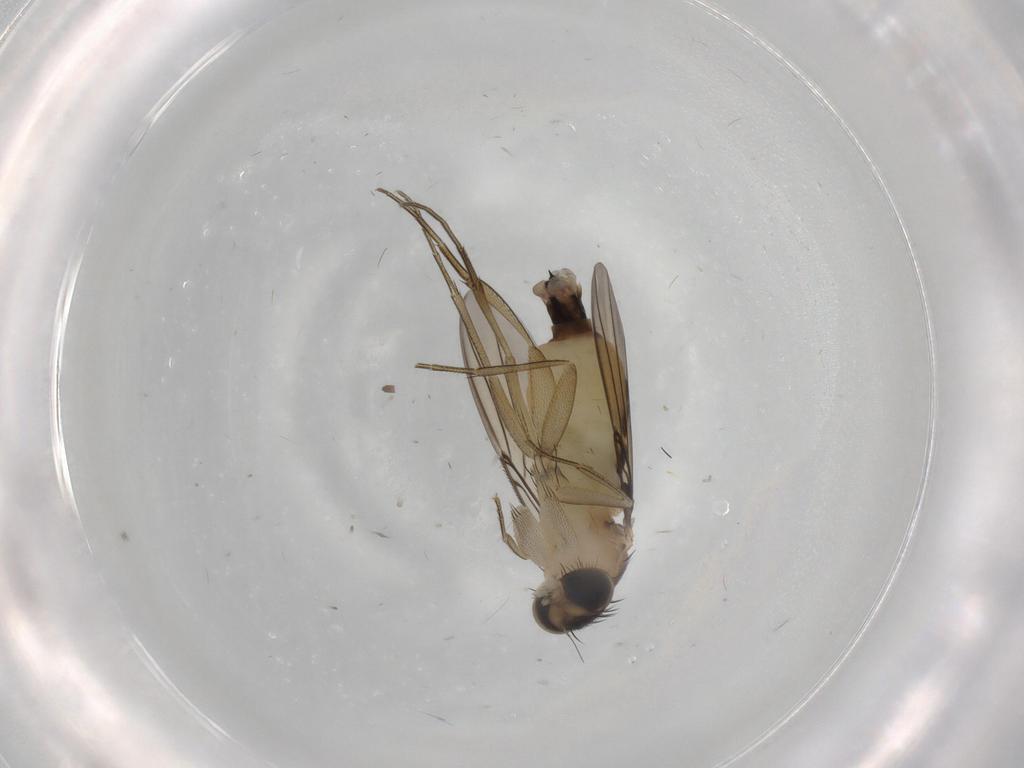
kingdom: Animalia
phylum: Arthropoda
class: Insecta
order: Diptera
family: Phoridae
